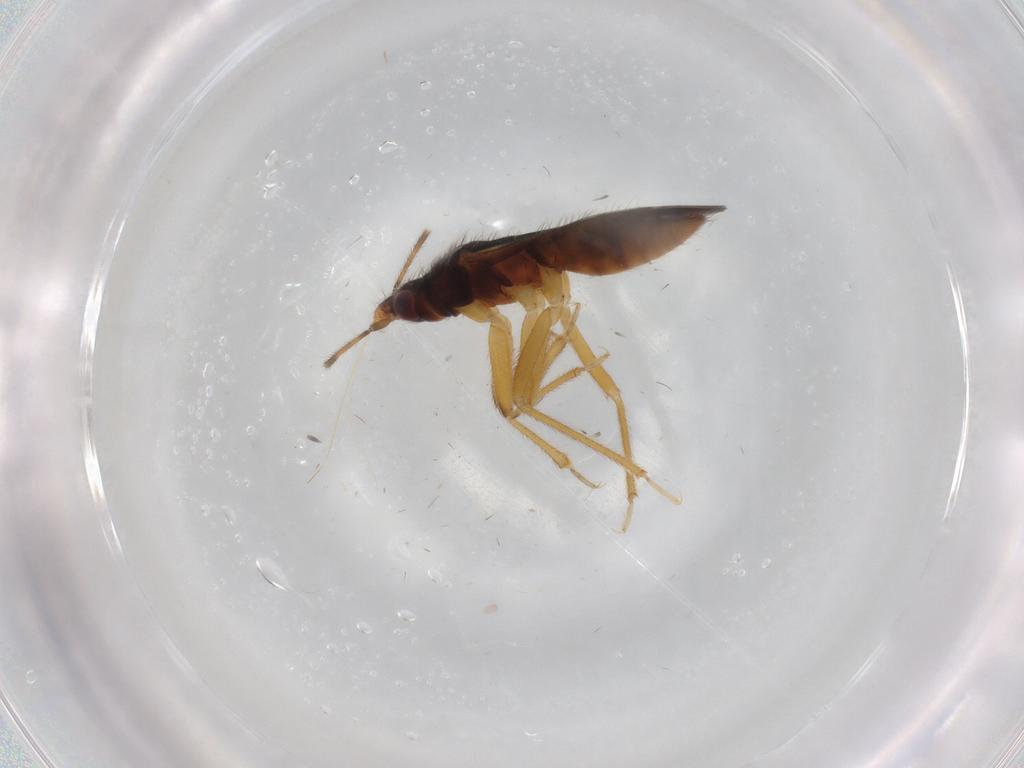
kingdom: Animalia
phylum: Arthropoda
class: Insecta
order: Hemiptera
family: Anthocoridae
